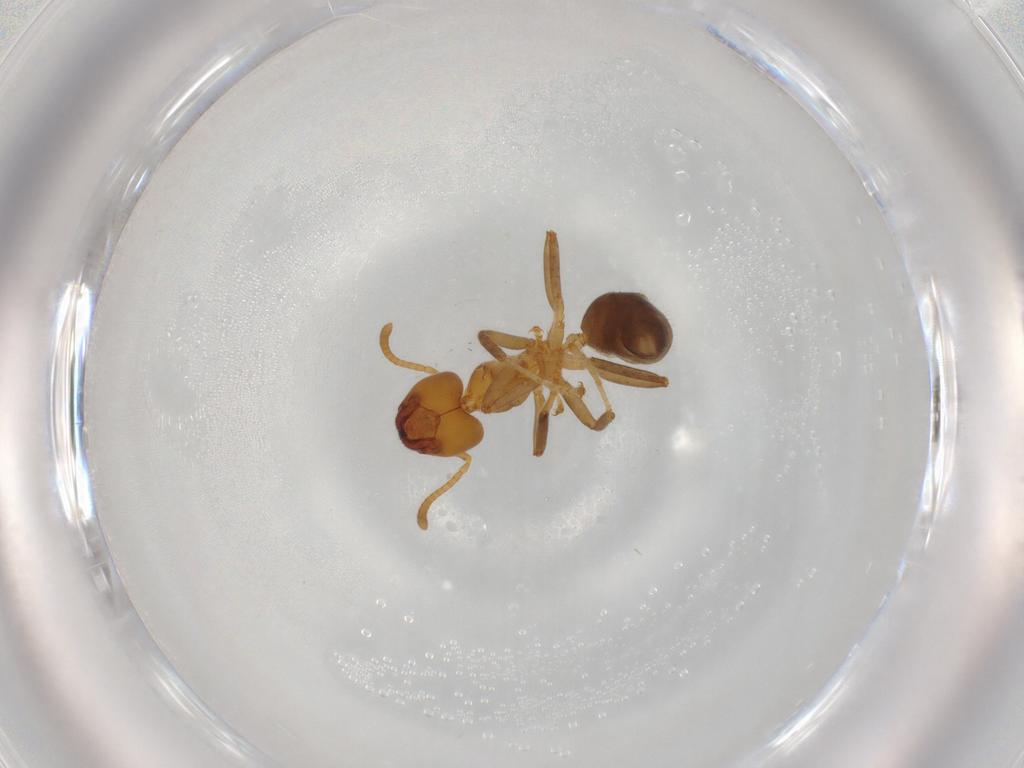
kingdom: Animalia
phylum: Arthropoda
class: Insecta
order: Hymenoptera
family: Formicidae
